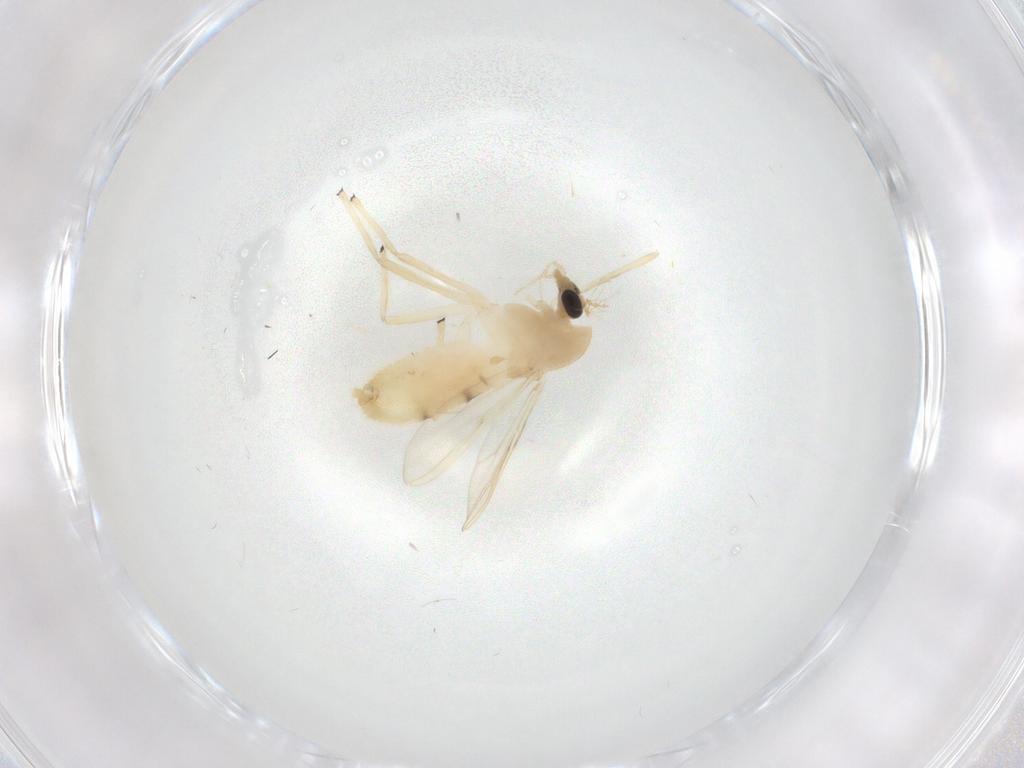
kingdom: Animalia
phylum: Arthropoda
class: Insecta
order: Diptera
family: Chironomidae
